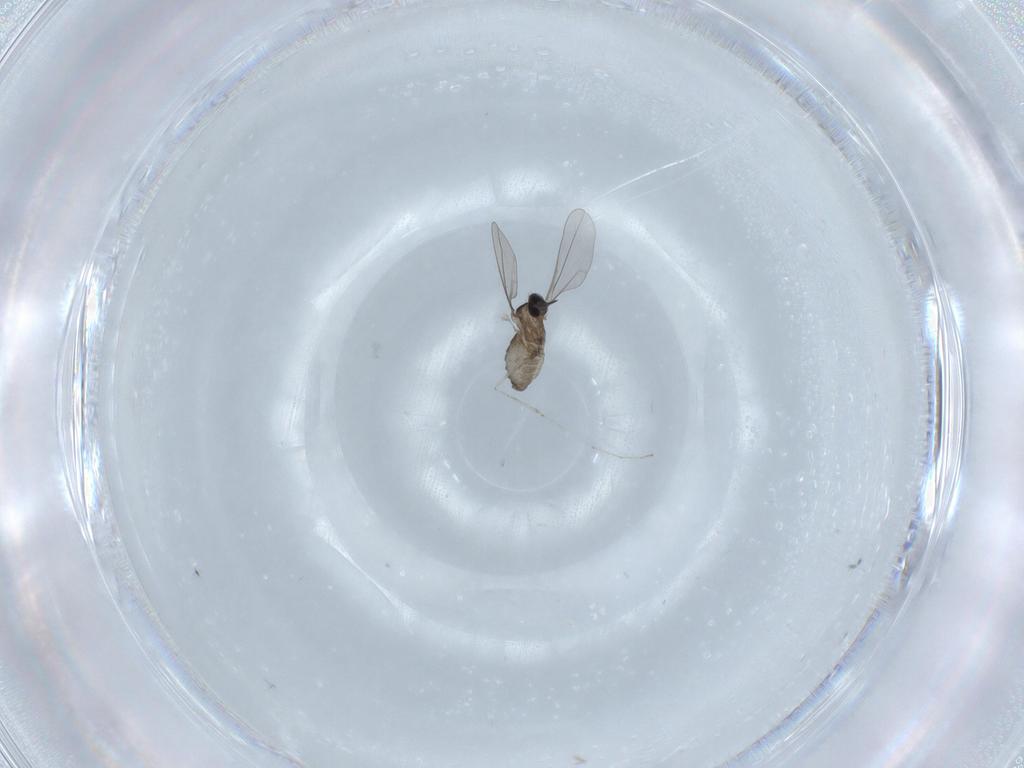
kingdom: Animalia
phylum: Arthropoda
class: Insecta
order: Diptera
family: Cecidomyiidae
